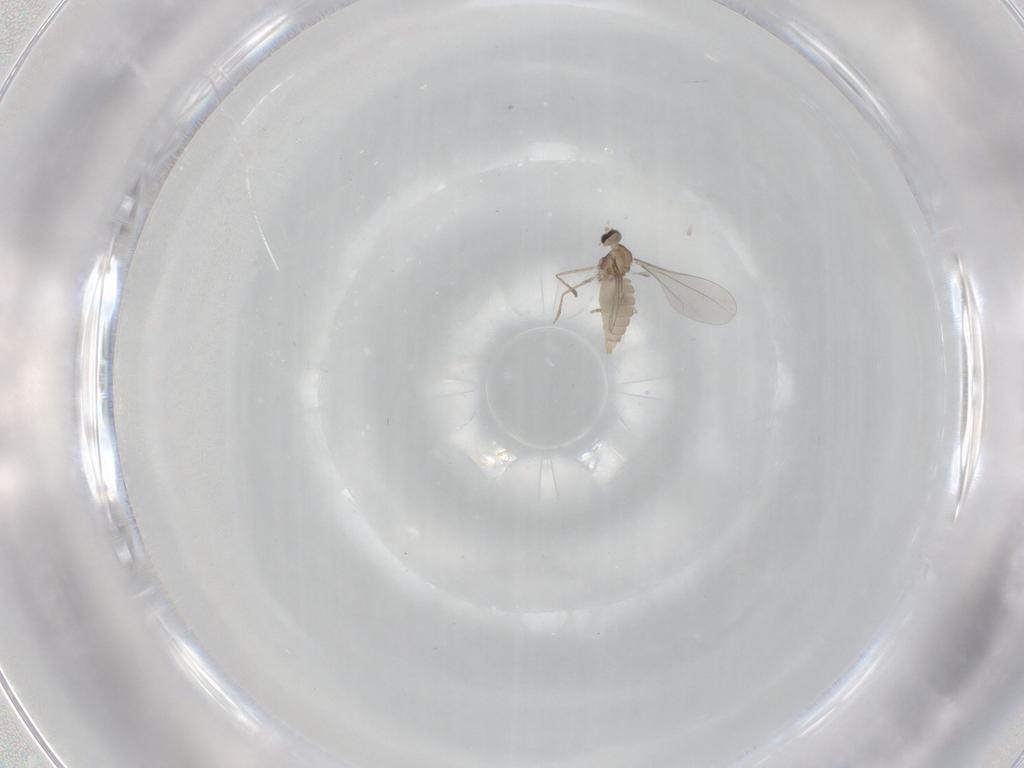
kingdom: Animalia
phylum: Arthropoda
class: Insecta
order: Diptera
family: Cecidomyiidae
